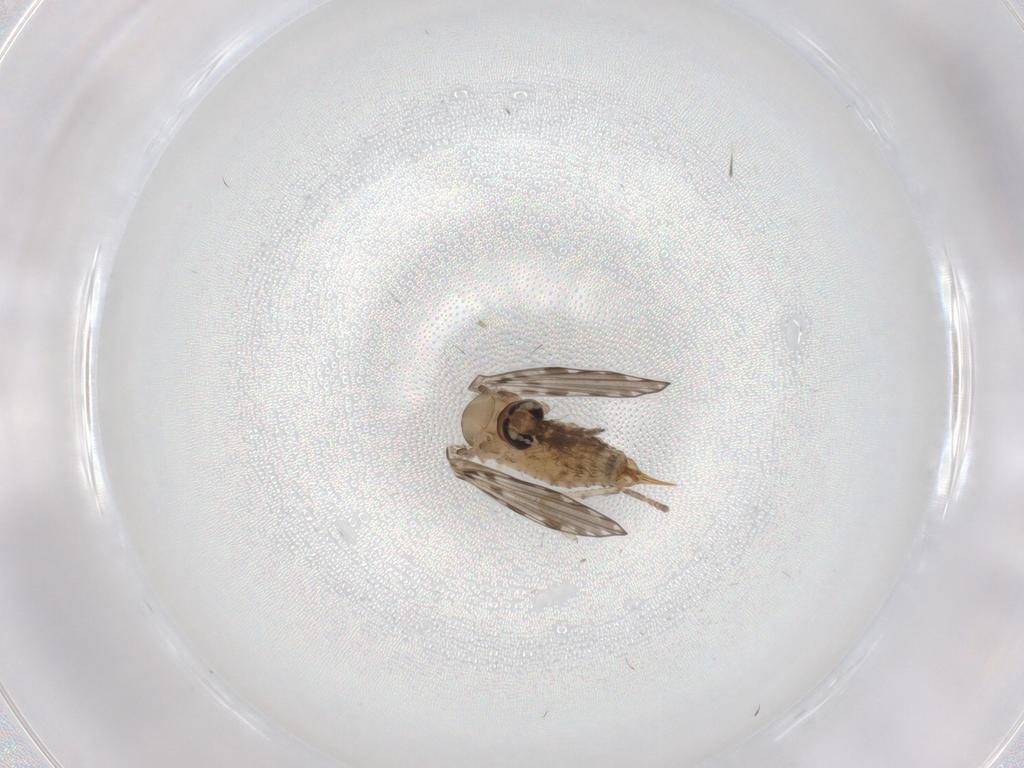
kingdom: Animalia
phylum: Arthropoda
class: Insecta
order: Diptera
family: Psychodidae
